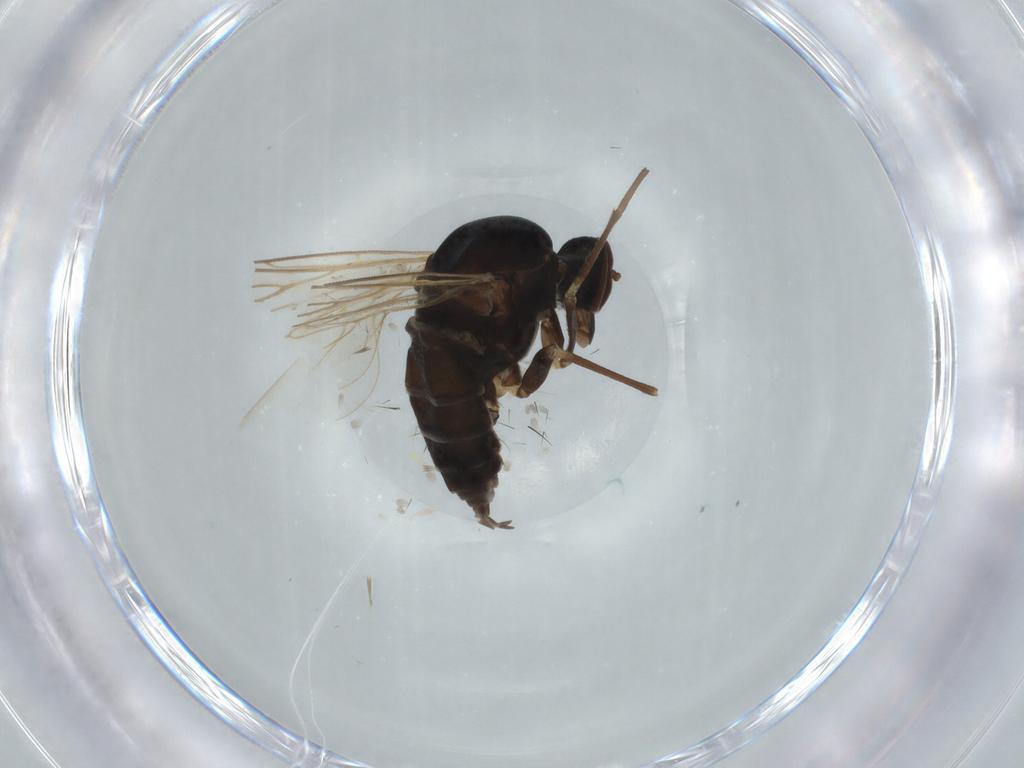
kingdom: Animalia
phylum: Arthropoda
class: Insecta
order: Diptera
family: Empididae
